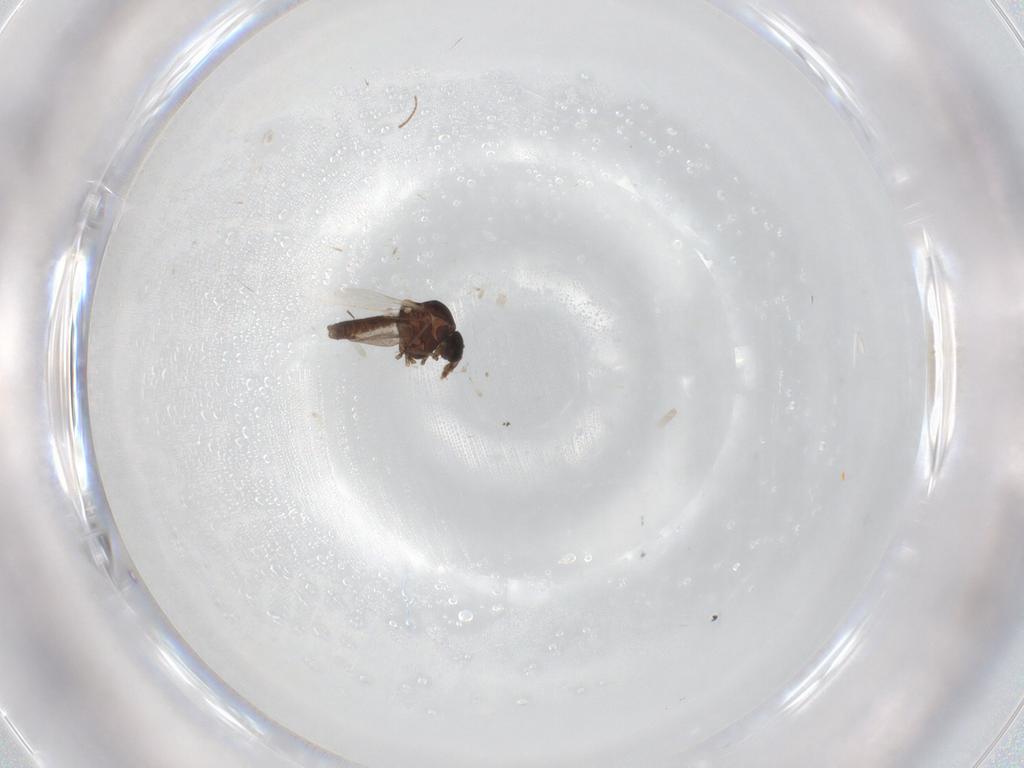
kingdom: Animalia
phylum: Arthropoda
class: Insecta
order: Diptera
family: Ceratopogonidae
